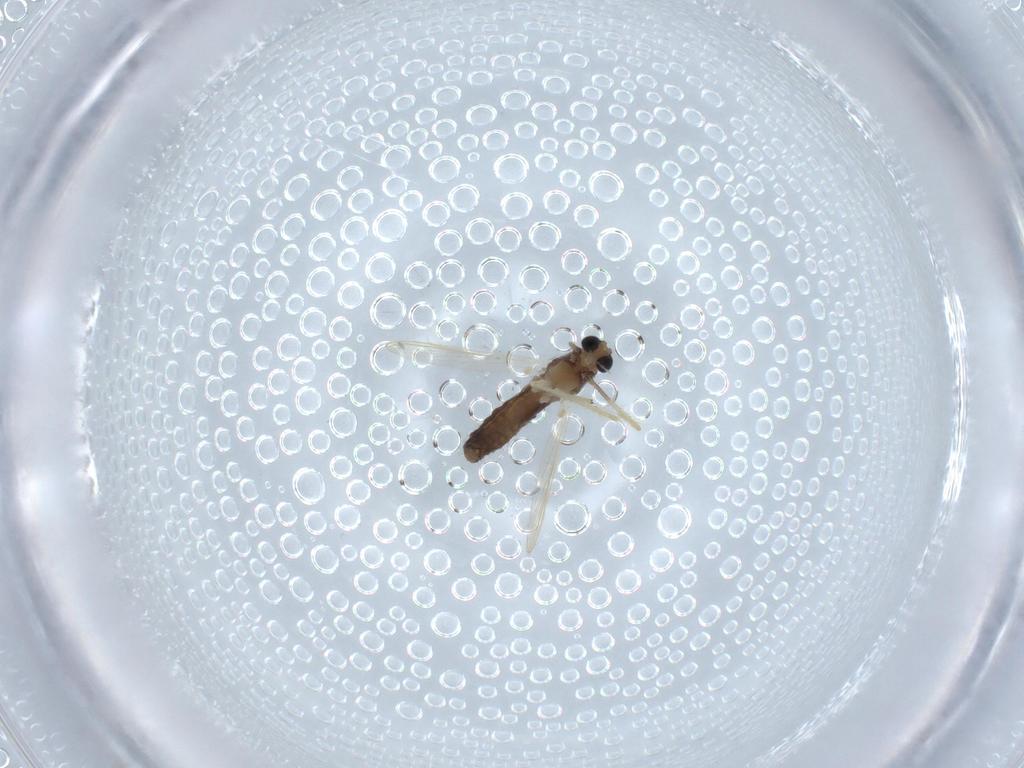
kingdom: Animalia
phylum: Arthropoda
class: Insecta
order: Diptera
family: Chironomidae
